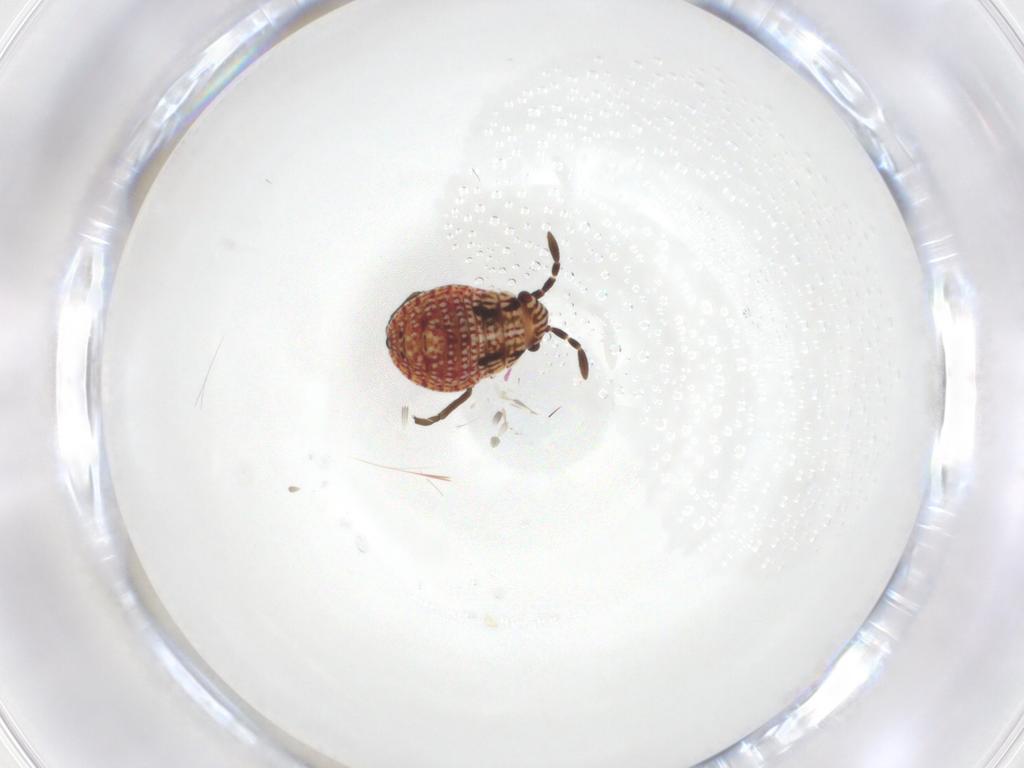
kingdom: Animalia
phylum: Arthropoda
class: Insecta
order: Hemiptera
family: Lygaeidae
